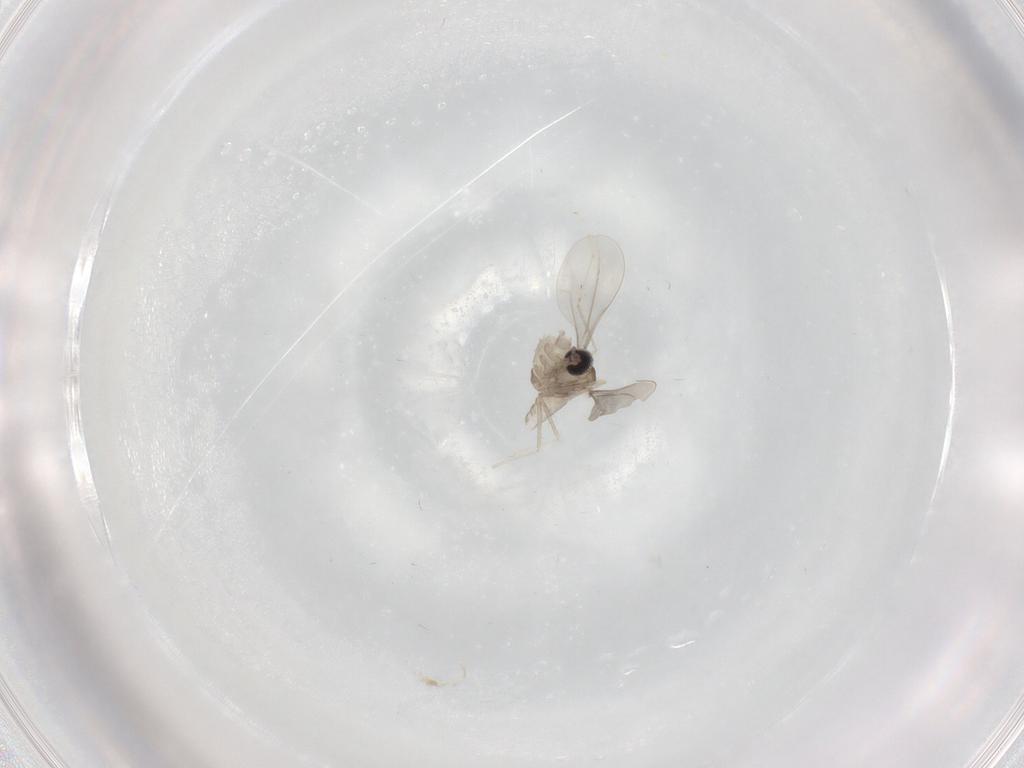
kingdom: Animalia
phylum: Arthropoda
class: Insecta
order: Diptera
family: Cecidomyiidae
